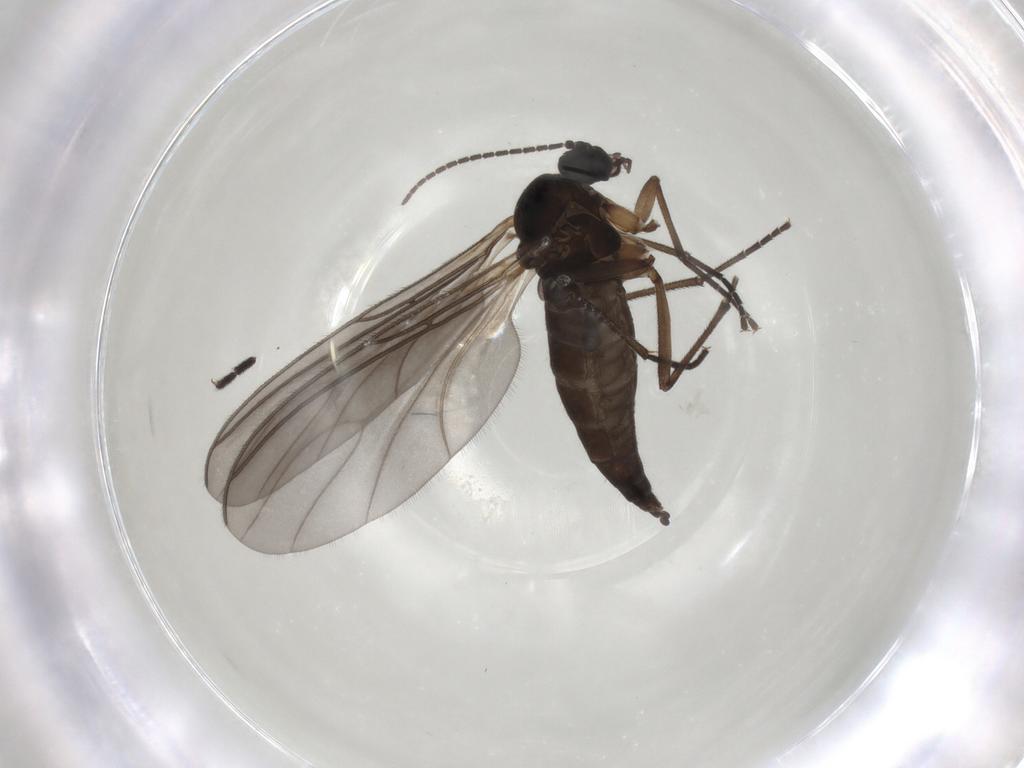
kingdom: Animalia
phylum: Arthropoda
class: Insecta
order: Diptera
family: Sciaridae
